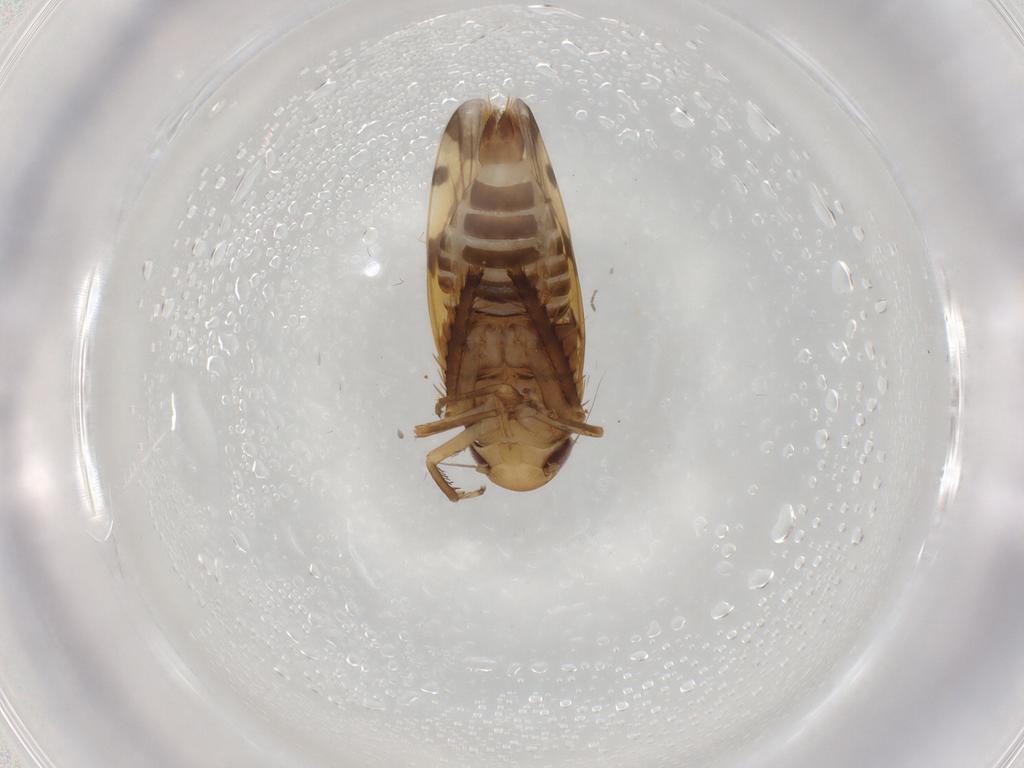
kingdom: Animalia
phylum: Arthropoda
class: Insecta
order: Hemiptera
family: Cicadellidae
